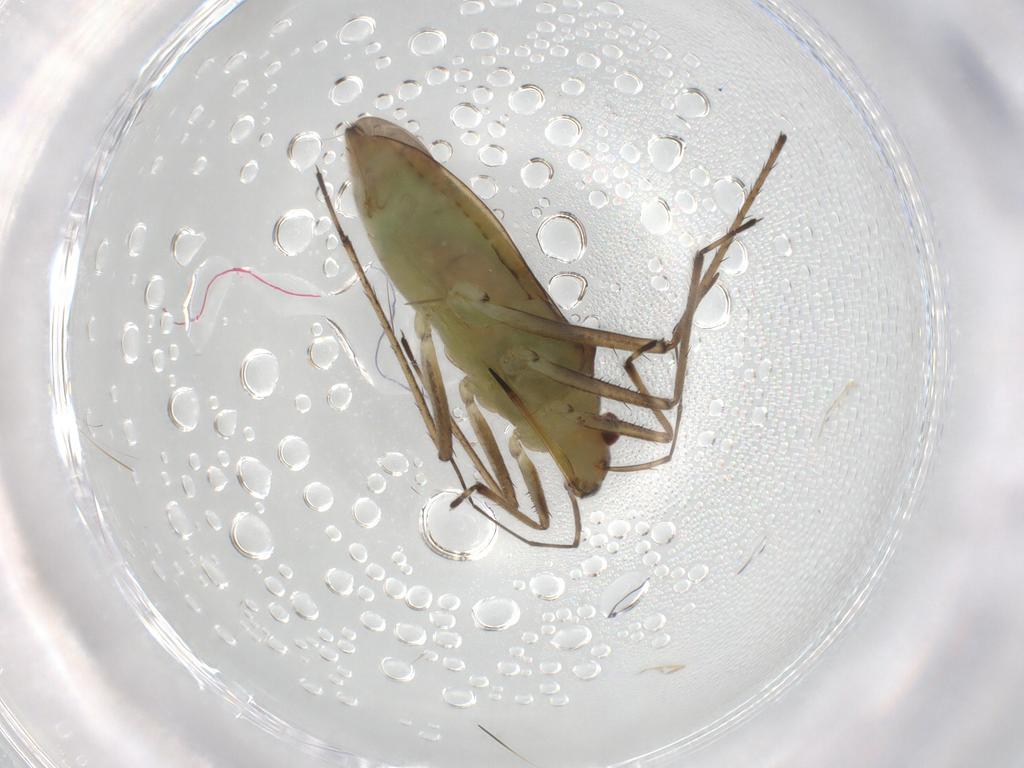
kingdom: Animalia
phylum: Arthropoda
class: Insecta
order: Hemiptera
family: Mesoveliidae
